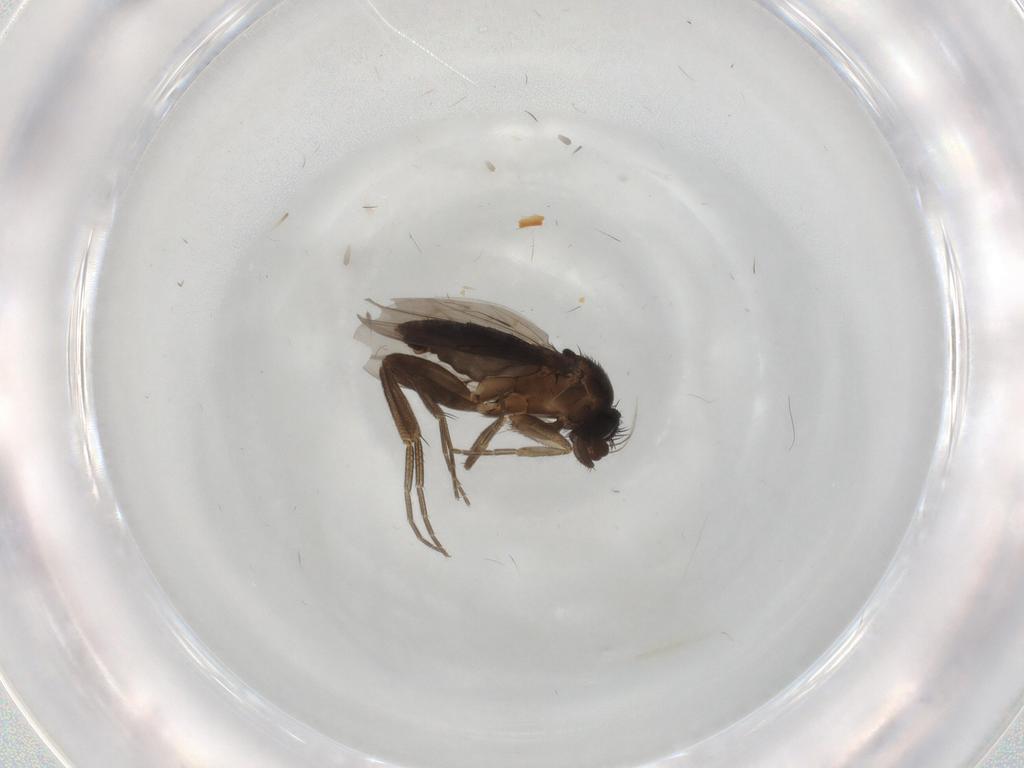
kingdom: Animalia
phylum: Arthropoda
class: Insecta
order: Diptera
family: Phoridae
